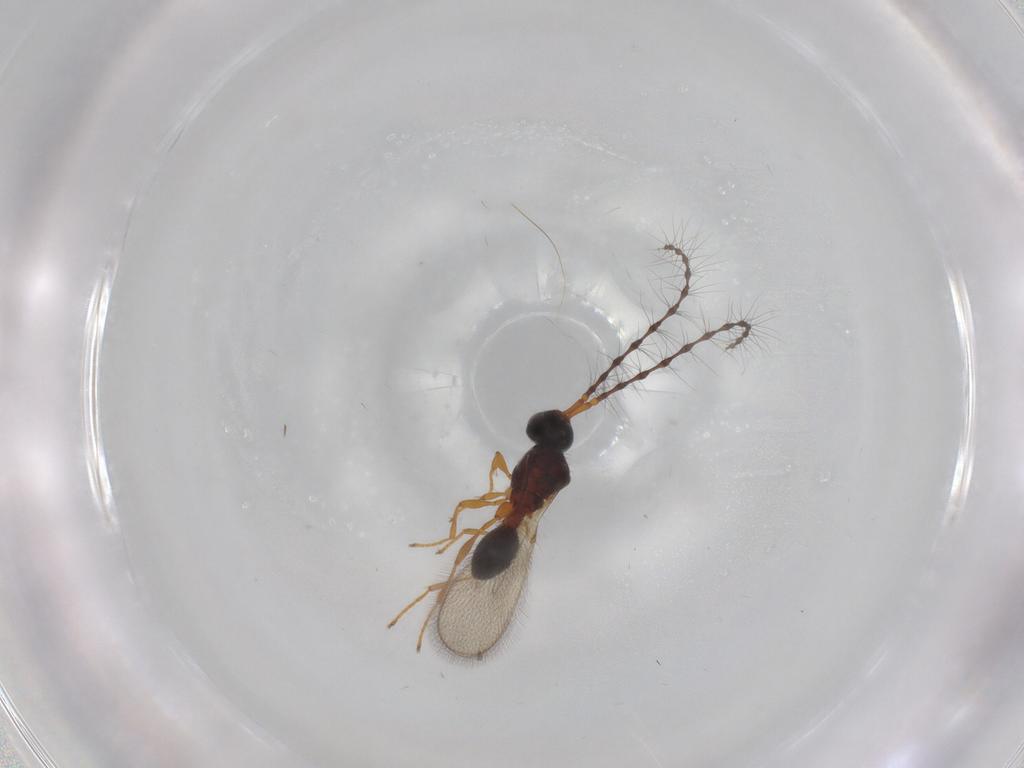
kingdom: Animalia
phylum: Arthropoda
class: Insecta
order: Hymenoptera
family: Diapriidae
